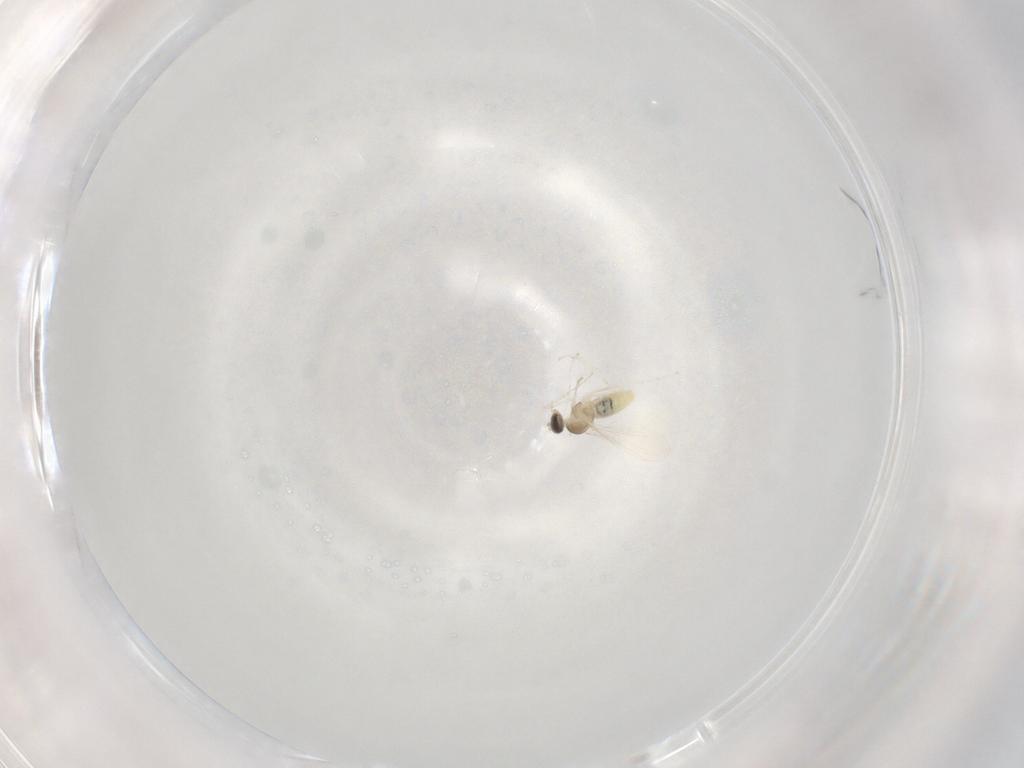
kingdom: Animalia
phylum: Arthropoda
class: Insecta
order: Diptera
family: Cecidomyiidae
